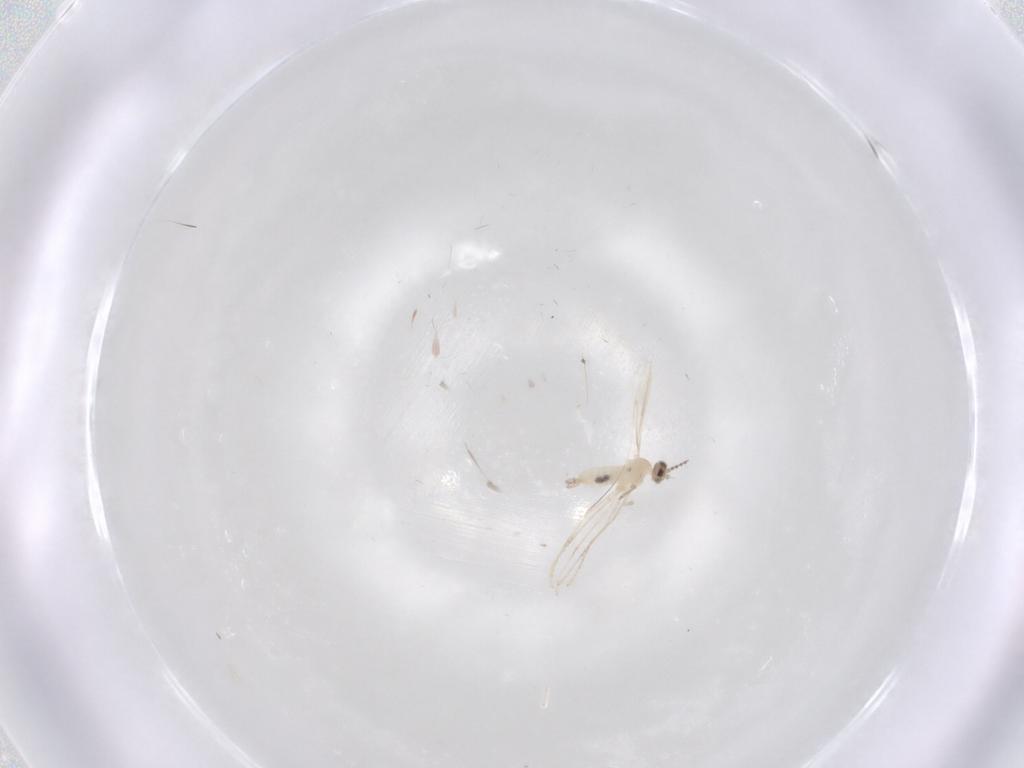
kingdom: Animalia
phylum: Arthropoda
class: Insecta
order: Diptera
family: Cecidomyiidae
